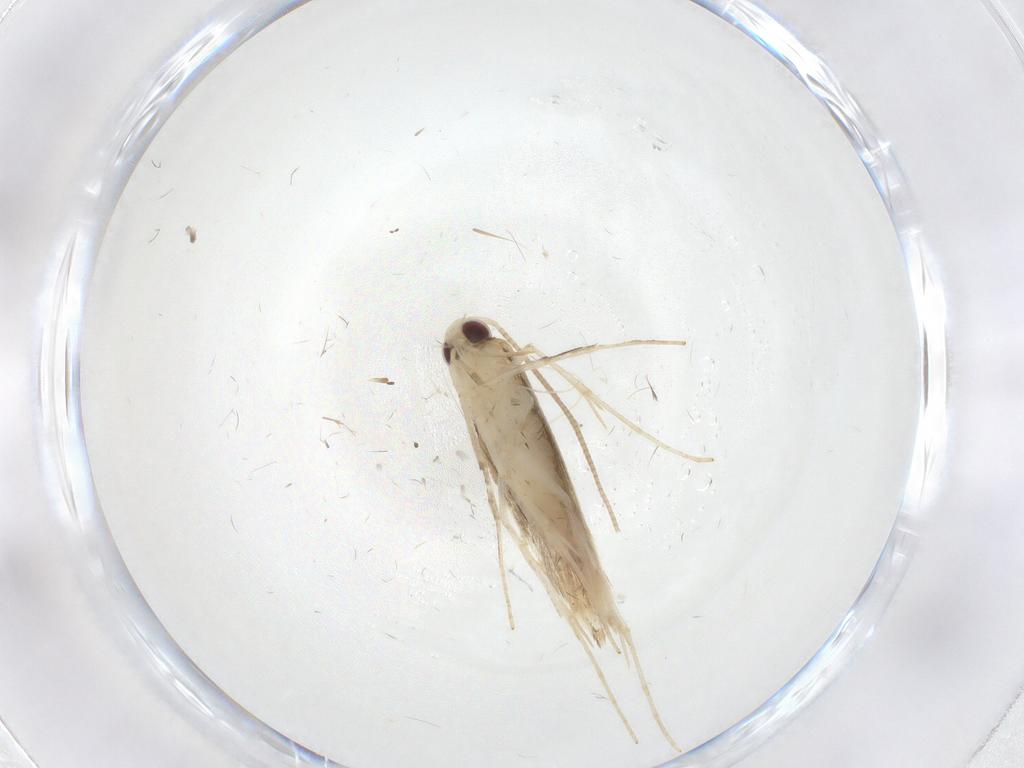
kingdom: Animalia
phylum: Arthropoda
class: Insecta
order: Lepidoptera
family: Gracillariidae
